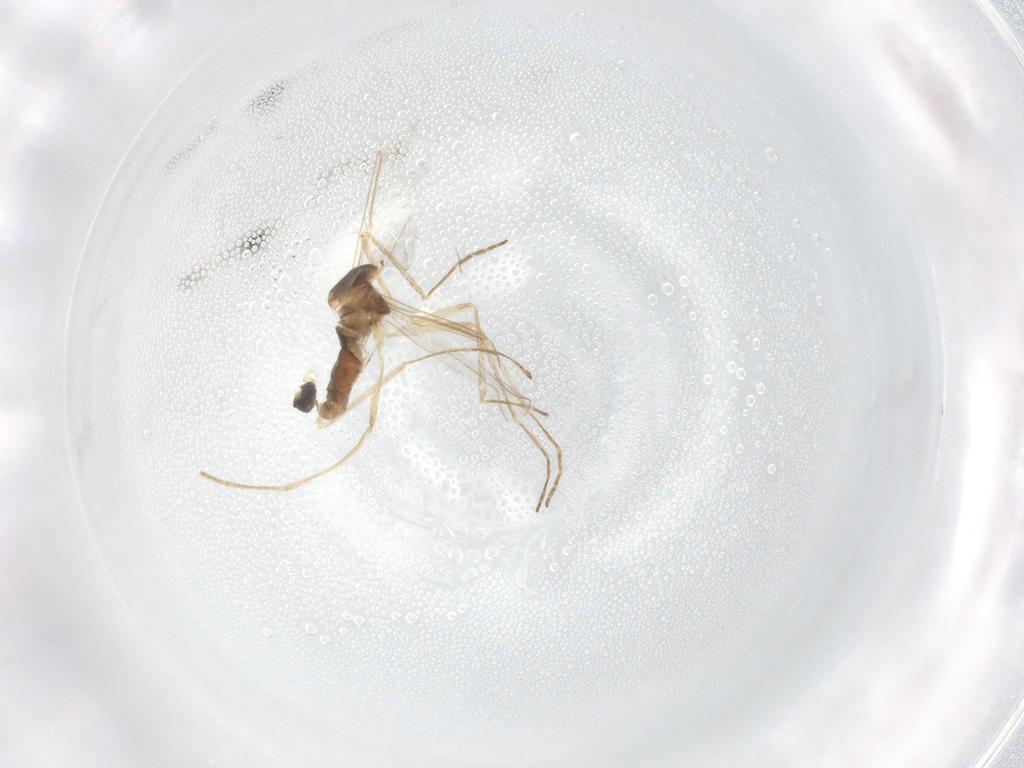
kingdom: Animalia
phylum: Arthropoda
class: Insecta
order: Diptera
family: Cecidomyiidae
